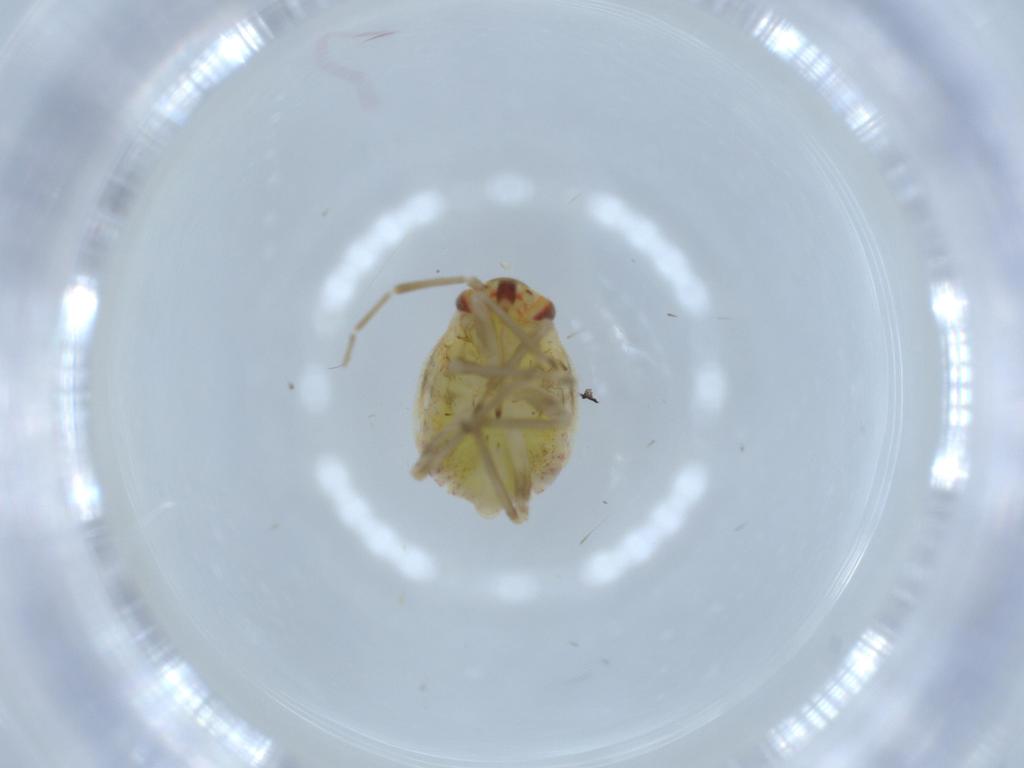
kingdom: Animalia
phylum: Arthropoda
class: Insecta
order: Hemiptera
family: Miridae
